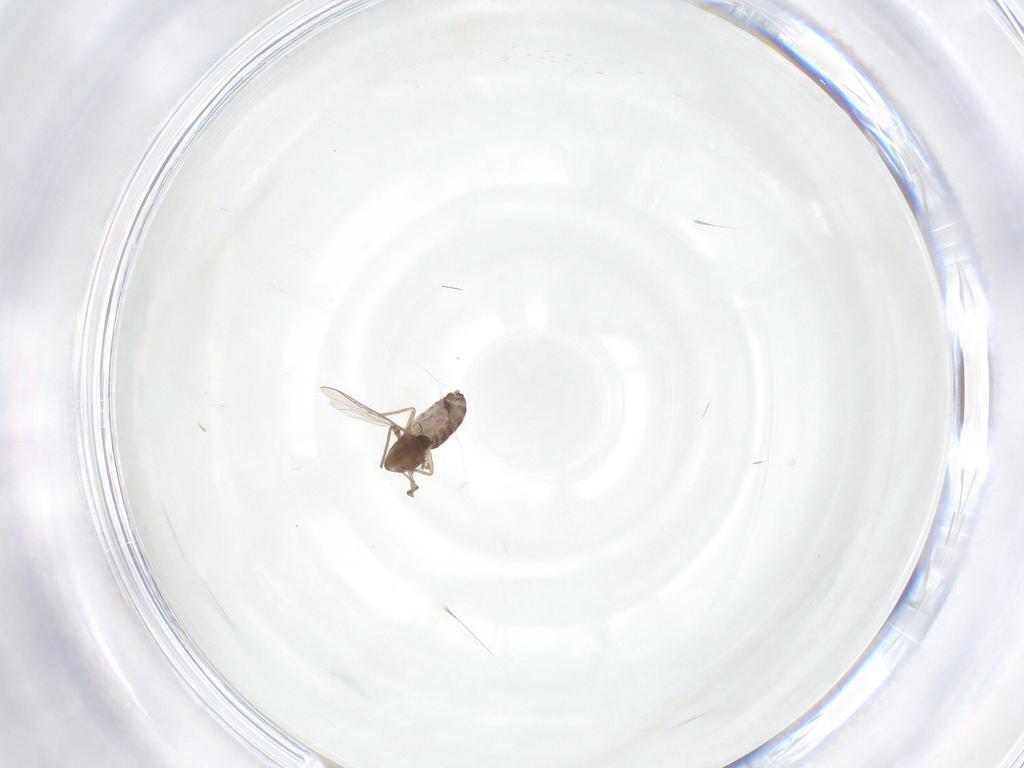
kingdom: Animalia
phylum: Arthropoda
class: Insecta
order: Diptera
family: Chironomidae
